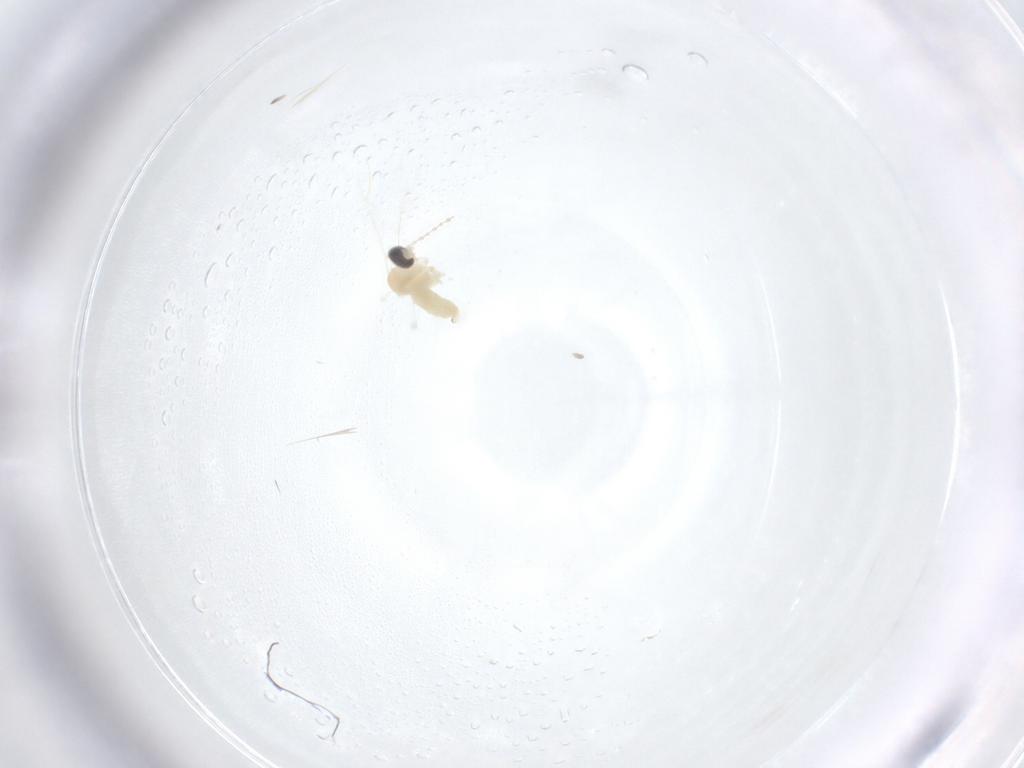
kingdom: Animalia
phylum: Arthropoda
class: Insecta
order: Diptera
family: Cecidomyiidae
